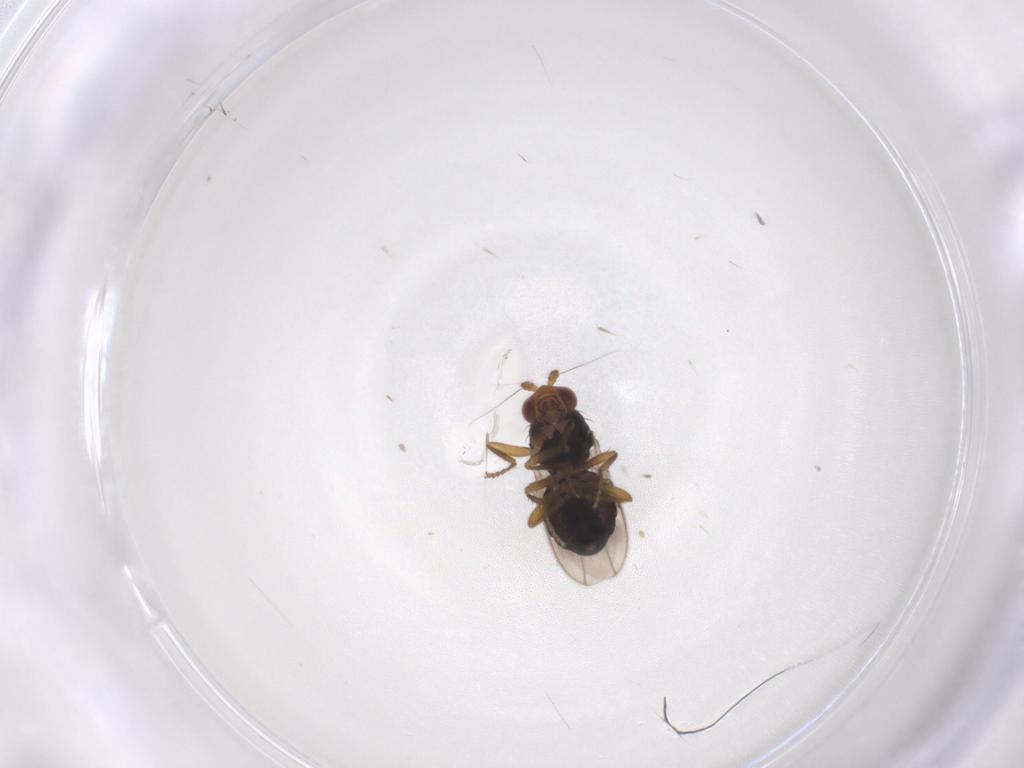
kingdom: Animalia
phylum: Arthropoda
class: Insecta
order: Diptera
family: Sphaeroceridae
